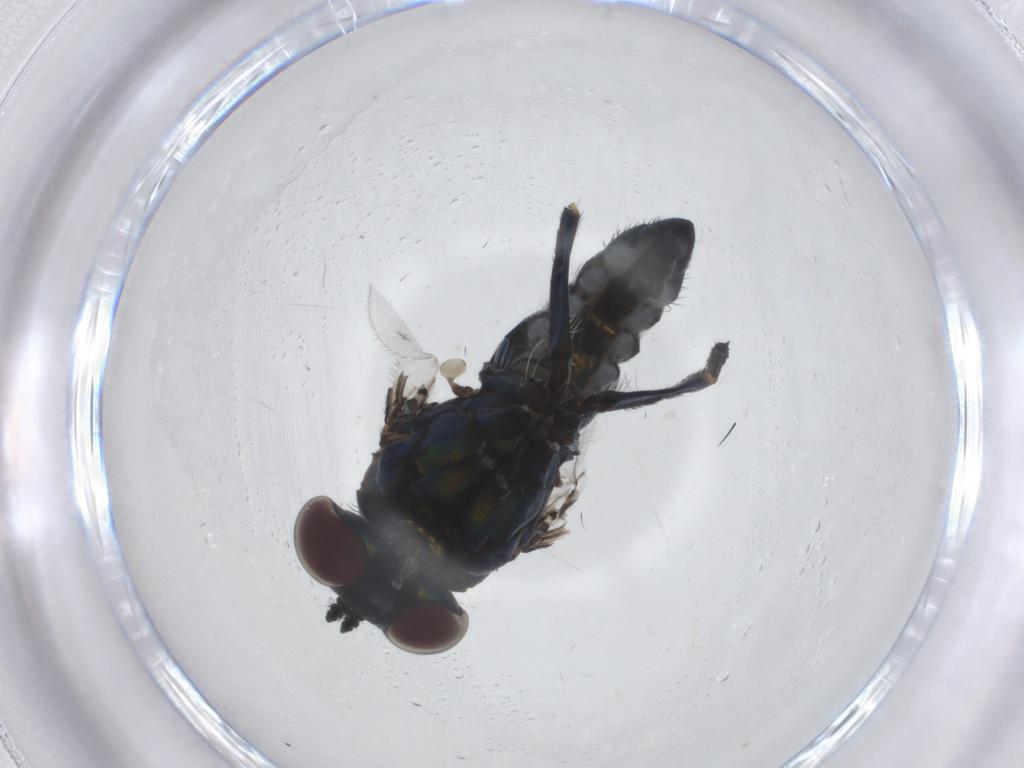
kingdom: Animalia
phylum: Arthropoda
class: Insecta
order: Diptera
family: Dolichopodidae
